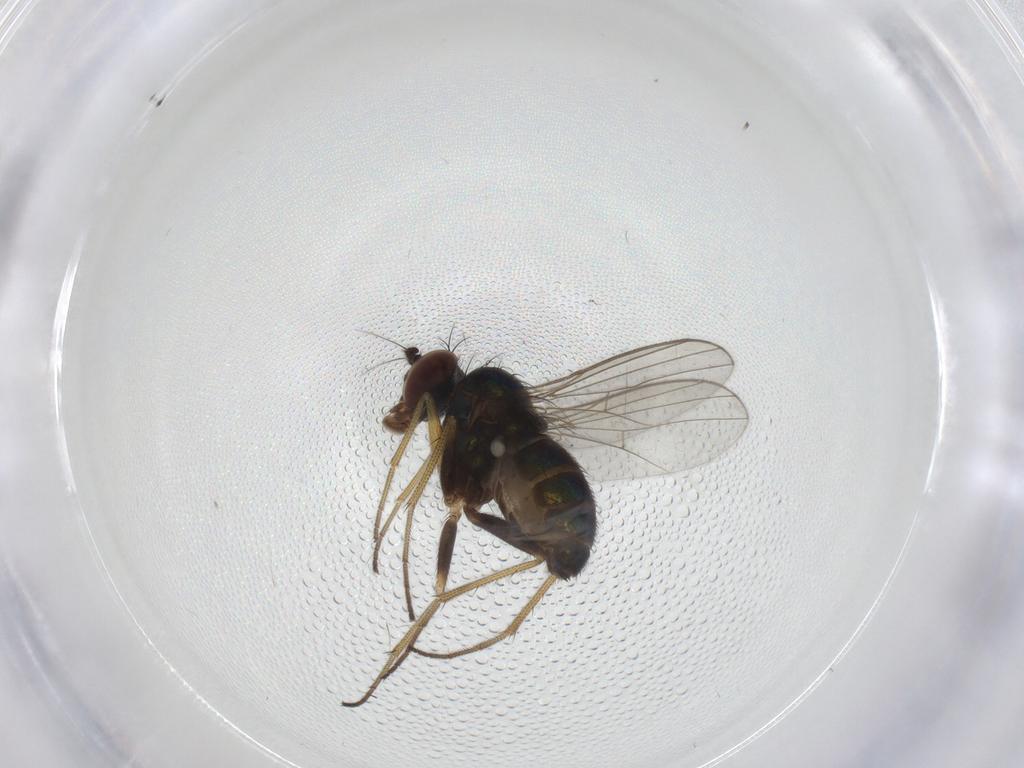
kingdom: Animalia
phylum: Arthropoda
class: Insecta
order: Diptera
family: Dolichopodidae
